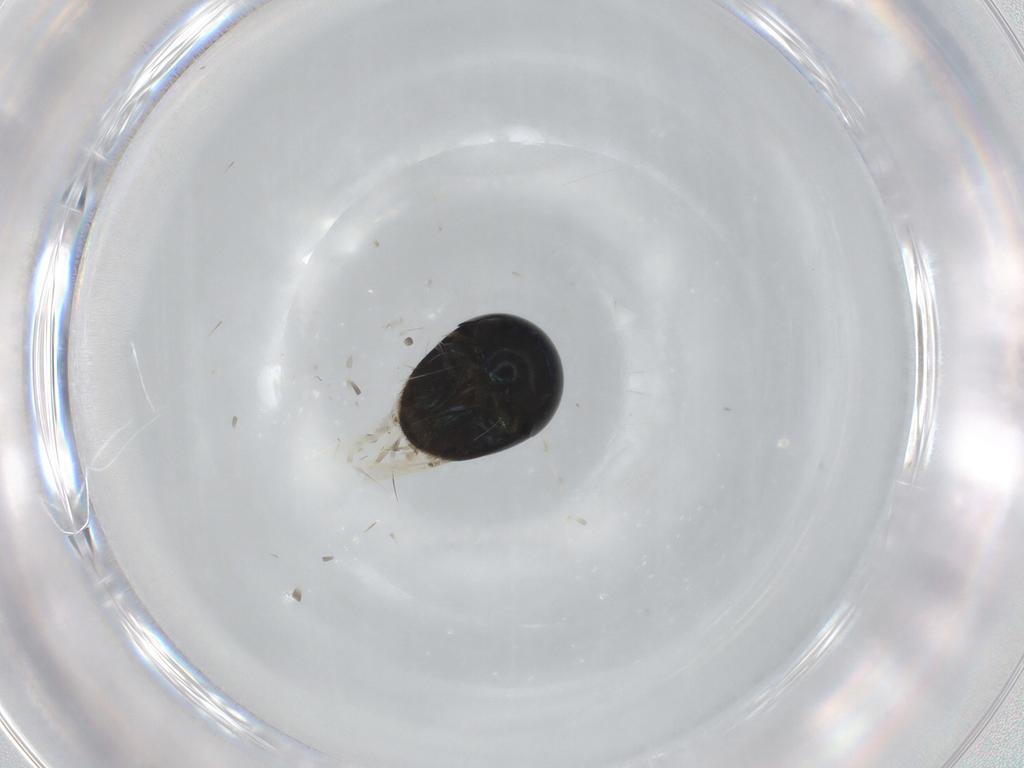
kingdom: Animalia
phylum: Arthropoda
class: Insecta
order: Coleoptera
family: Cybocephalidae
